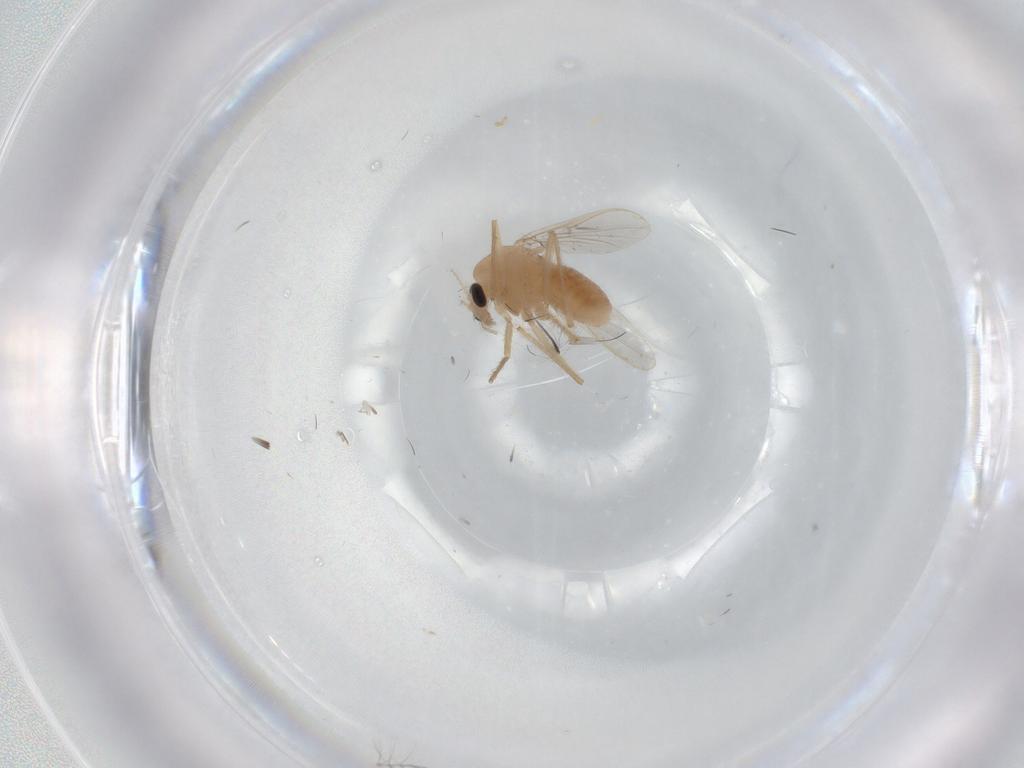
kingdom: Animalia
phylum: Arthropoda
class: Insecta
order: Diptera
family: Chironomidae
